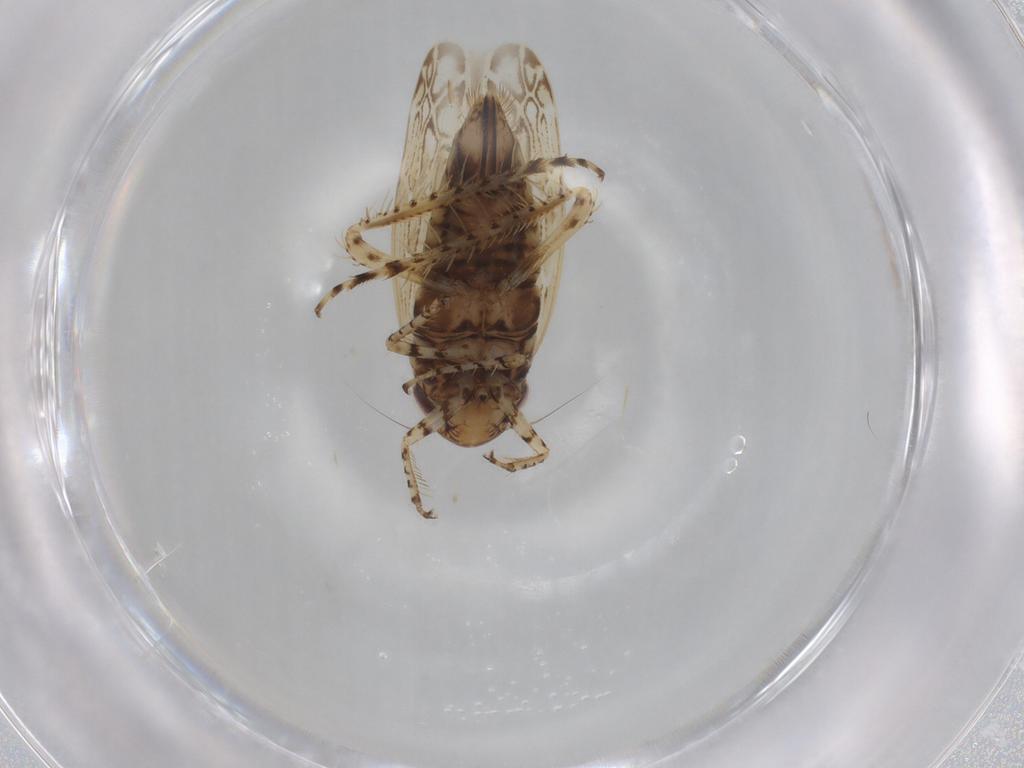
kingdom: Animalia
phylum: Arthropoda
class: Insecta
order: Hemiptera
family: Cicadellidae
